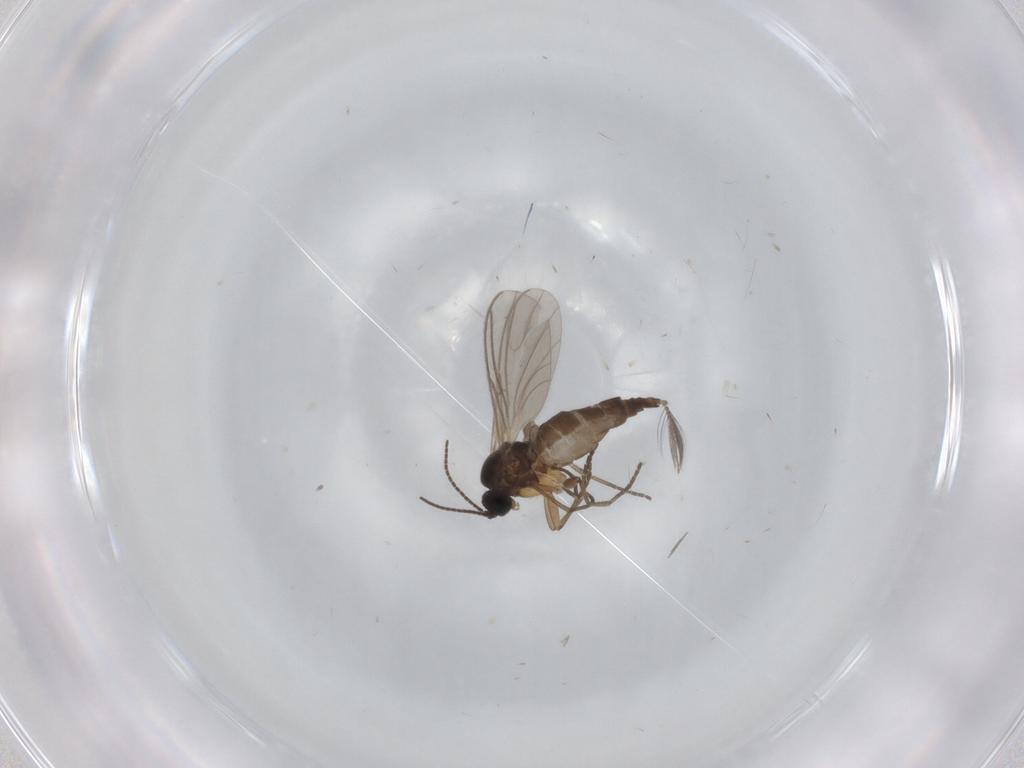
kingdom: Animalia
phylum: Arthropoda
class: Insecta
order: Diptera
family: Sciaridae
